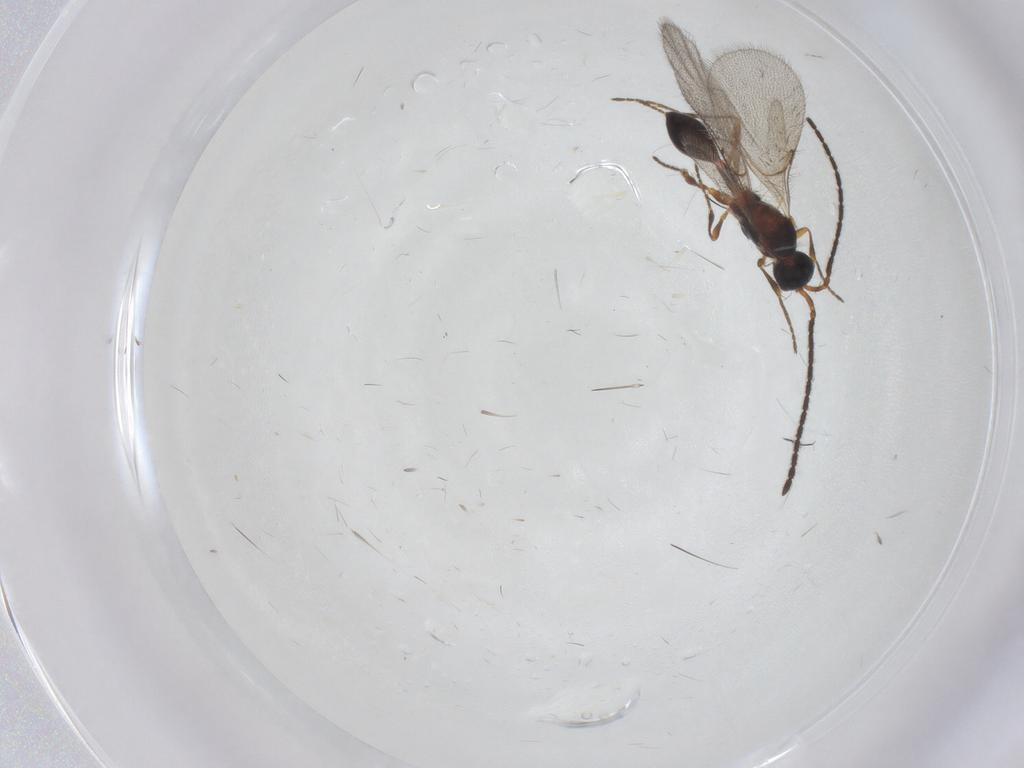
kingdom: Animalia
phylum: Arthropoda
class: Insecta
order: Hymenoptera
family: Diapriidae
